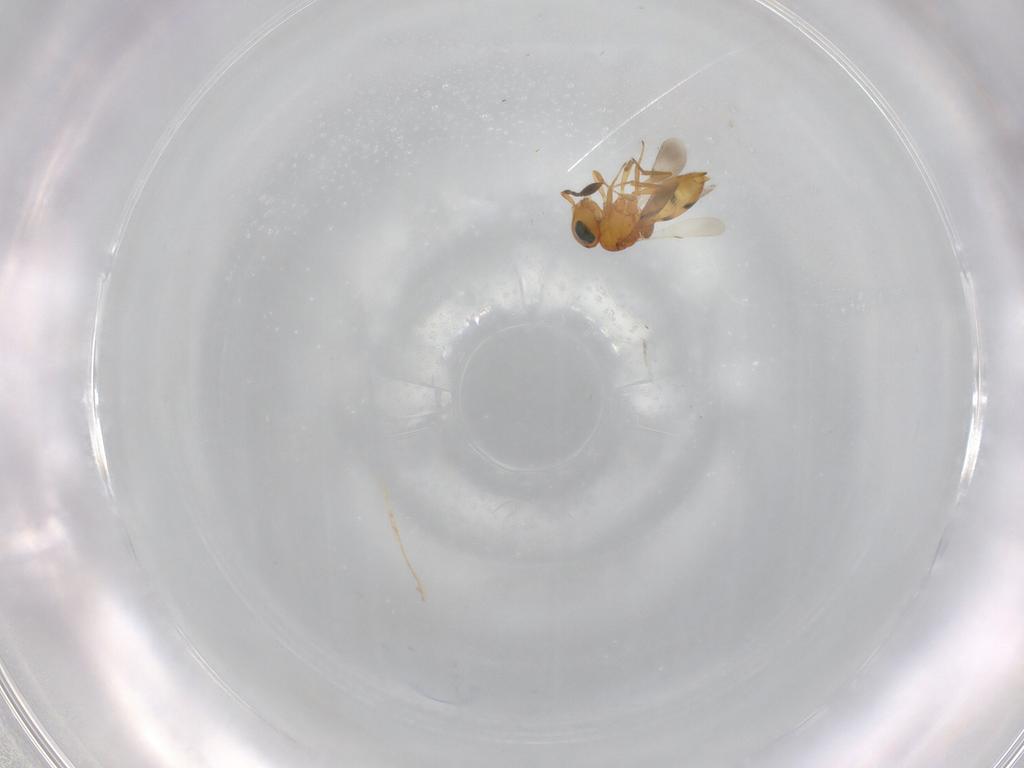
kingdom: Animalia
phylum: Arthropoda
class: Insecta
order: Hymenoptera
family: Scelionidae
